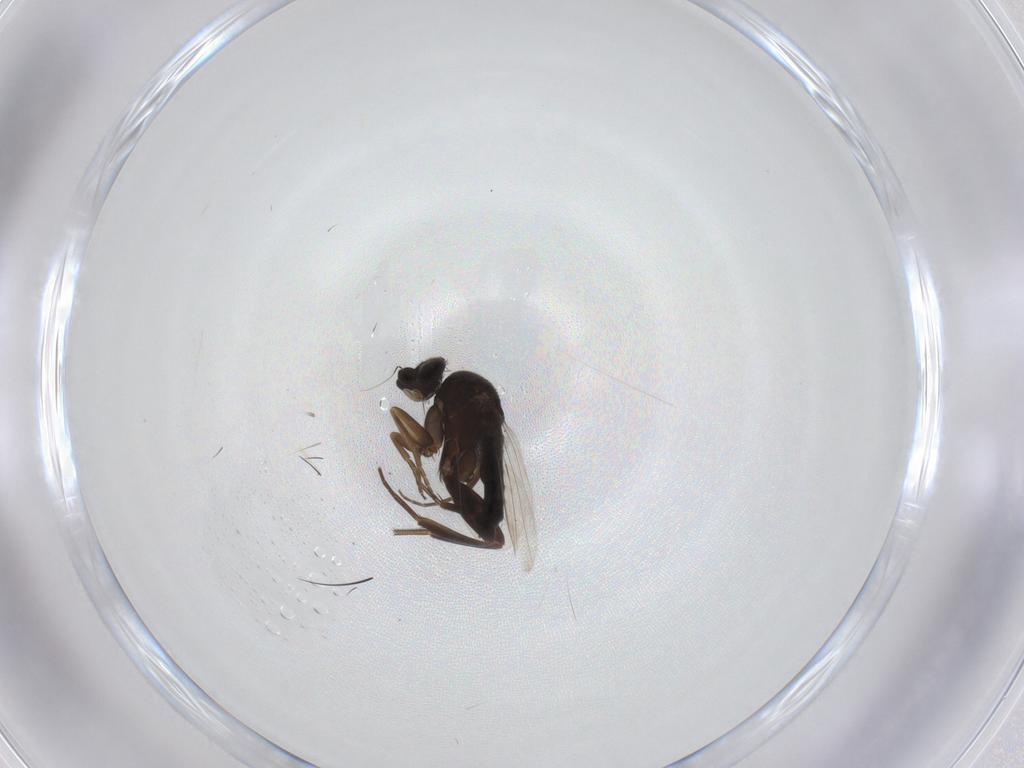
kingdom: Animalia
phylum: Arthropoda
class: Insecta
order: Diptera
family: Phoridae
